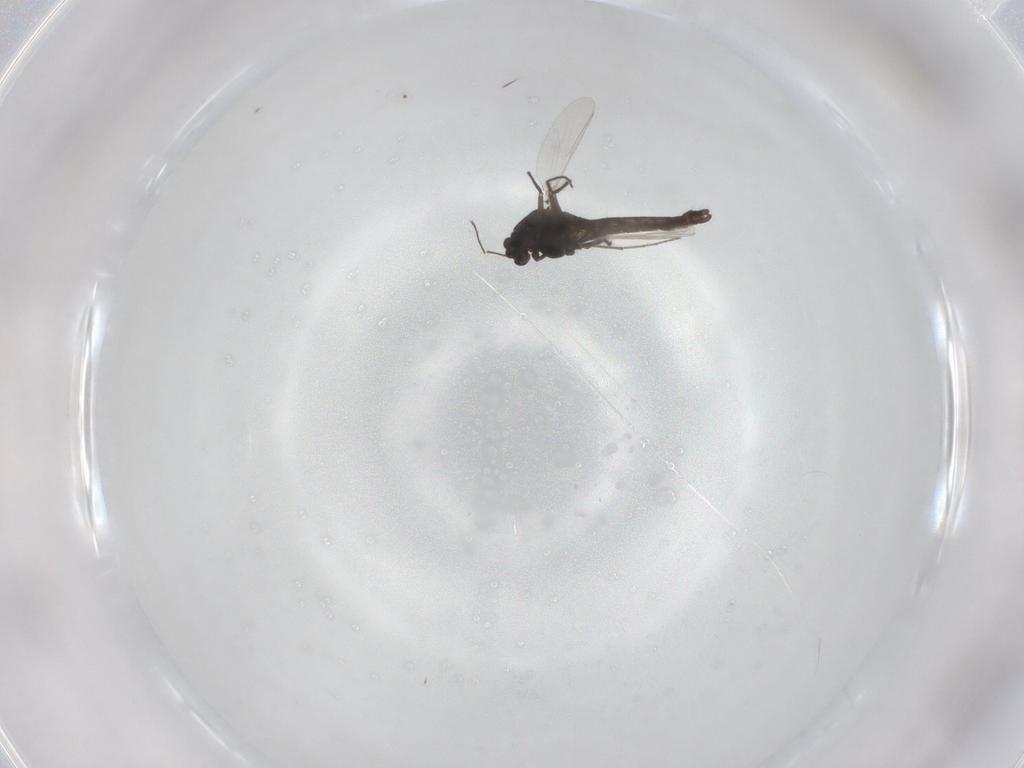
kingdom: Animalia
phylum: Arthropoda
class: Insecta
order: Diptera
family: Chironomidae
